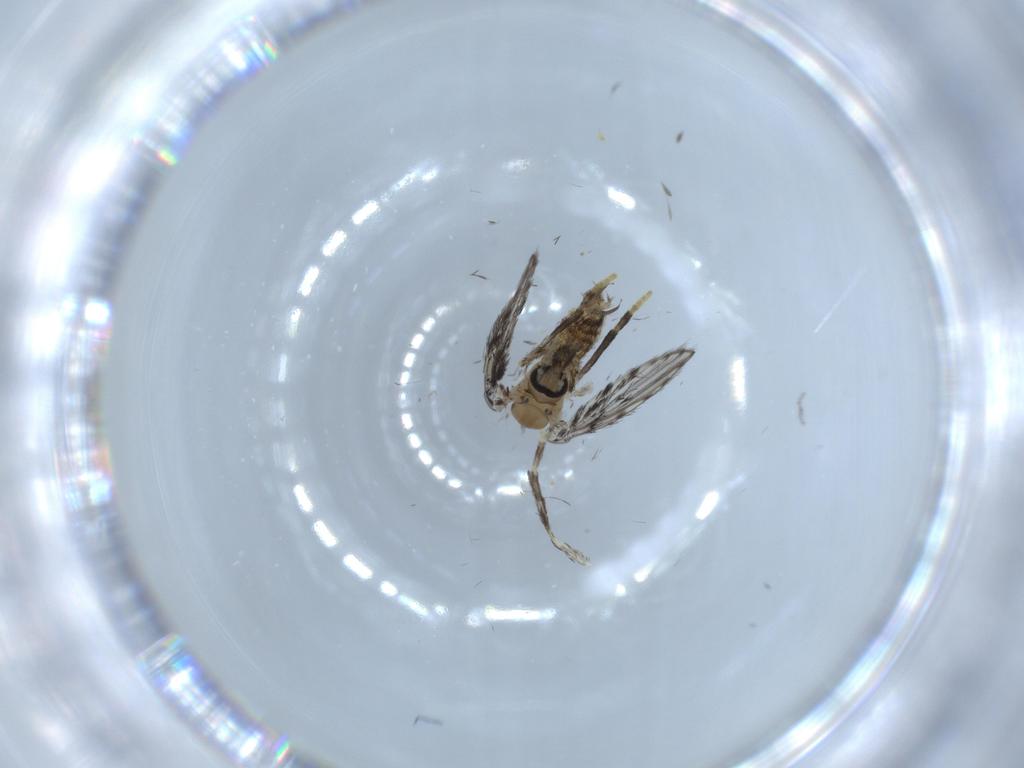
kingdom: Animalia
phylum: Arthropoda
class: Insecta
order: Diptera
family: Psychodidae
